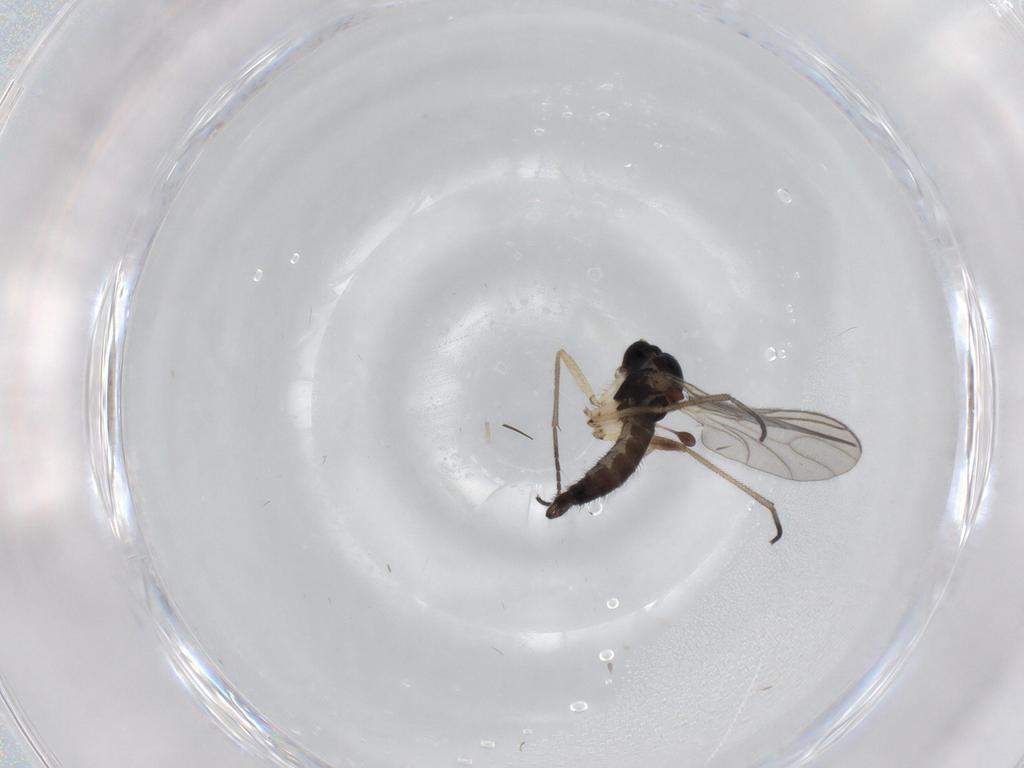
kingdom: Animalia
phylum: Arthropoda
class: Insecta
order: Diptera
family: Sciaridae
